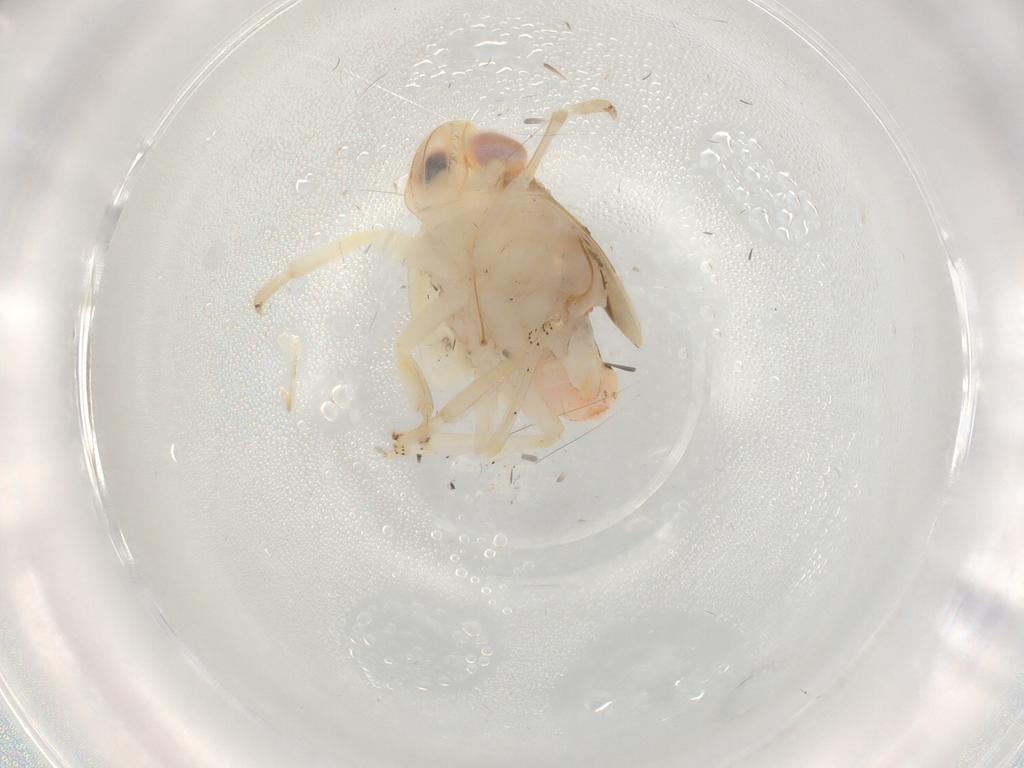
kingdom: Animalia
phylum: Arthropoda
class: Insecta
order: Hemiptera
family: Nogodinidae
